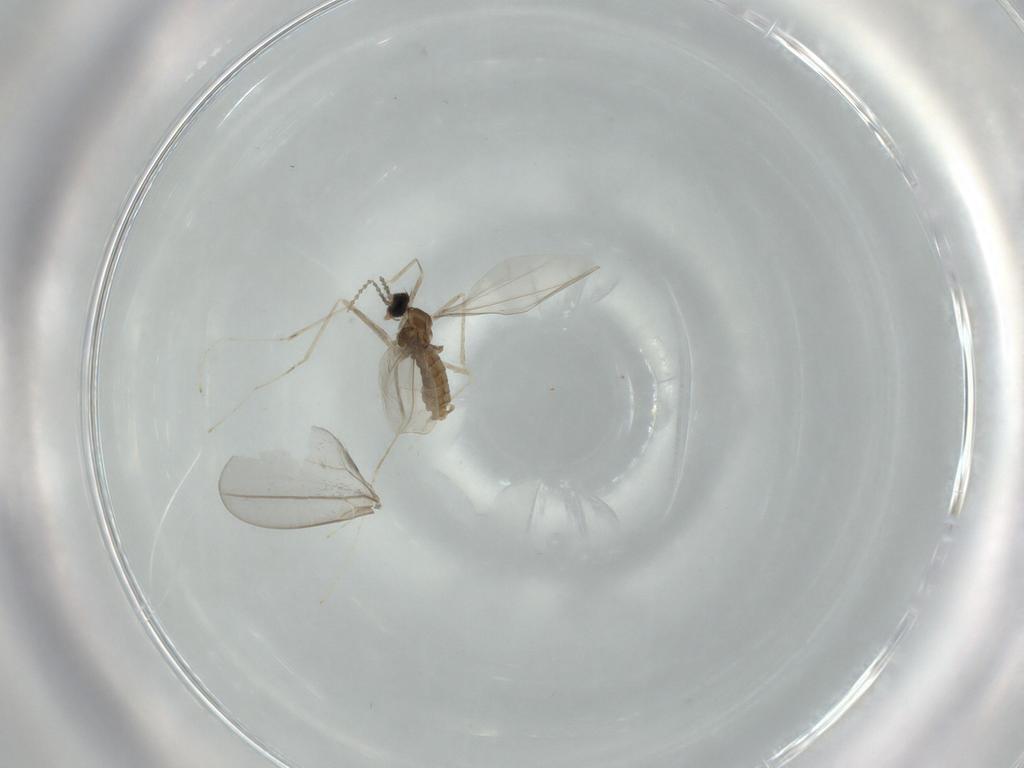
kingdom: Animalia
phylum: Arthropoda
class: Insecta
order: Diptera
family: Cecidomyiidae
